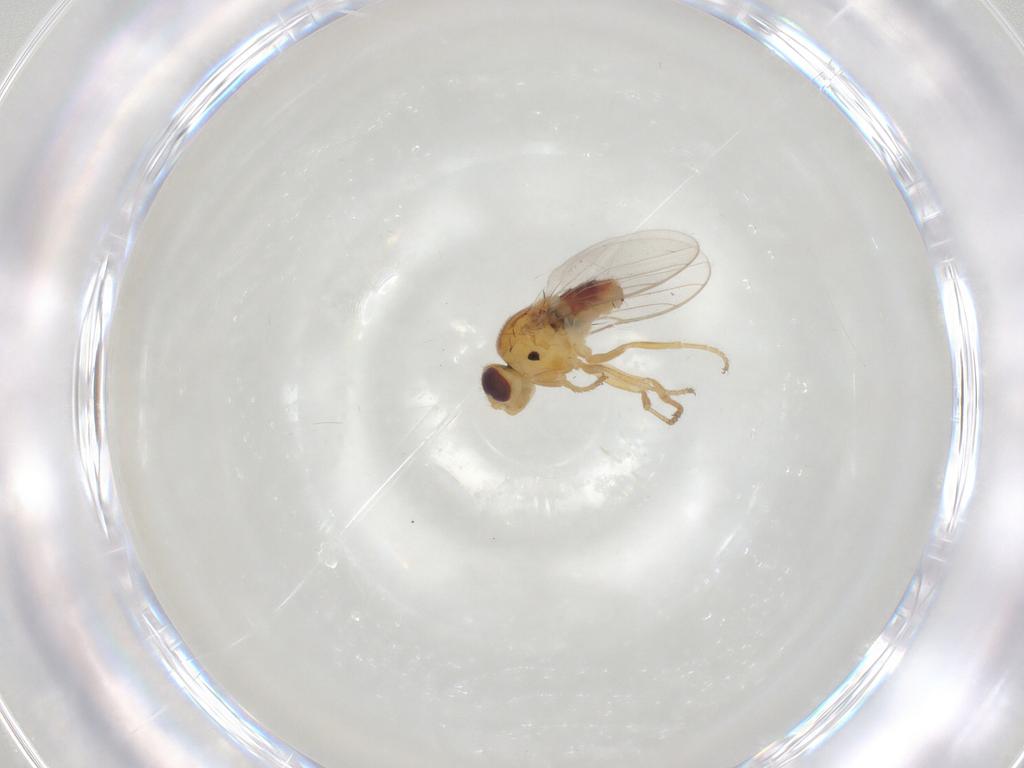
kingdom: Animalia
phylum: Arthropoda
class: Insecta
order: Diptera
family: Chloropidae
